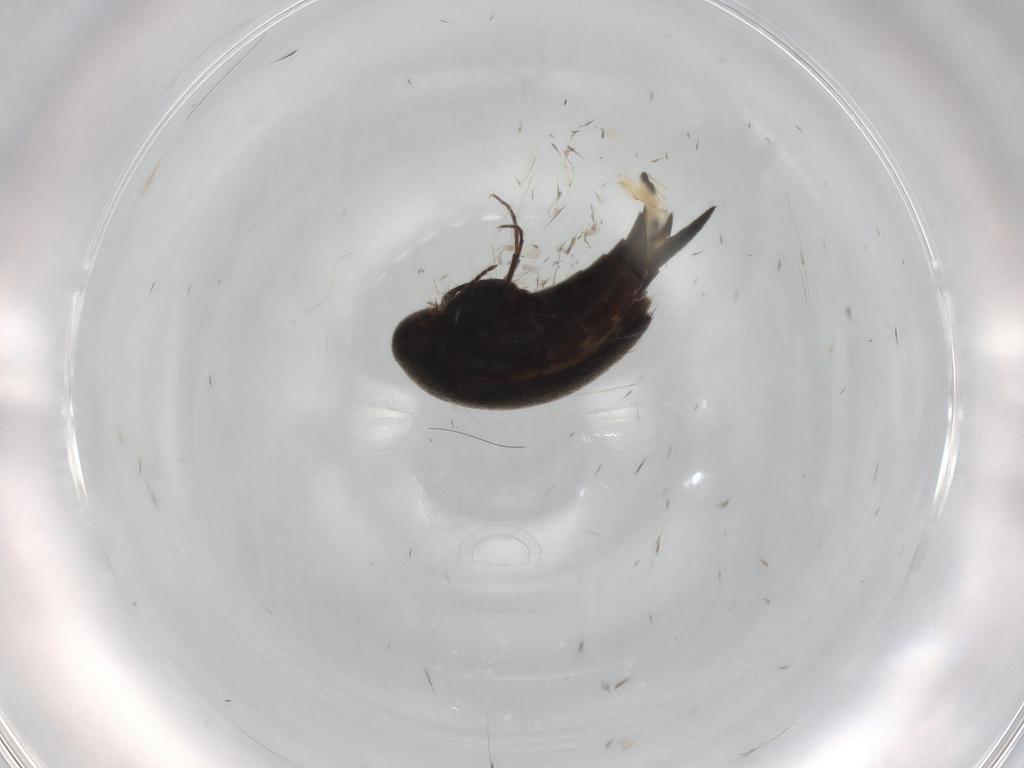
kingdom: Animalia
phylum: Arthropoda
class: Insecta
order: Coleoptera
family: Mordellidae
